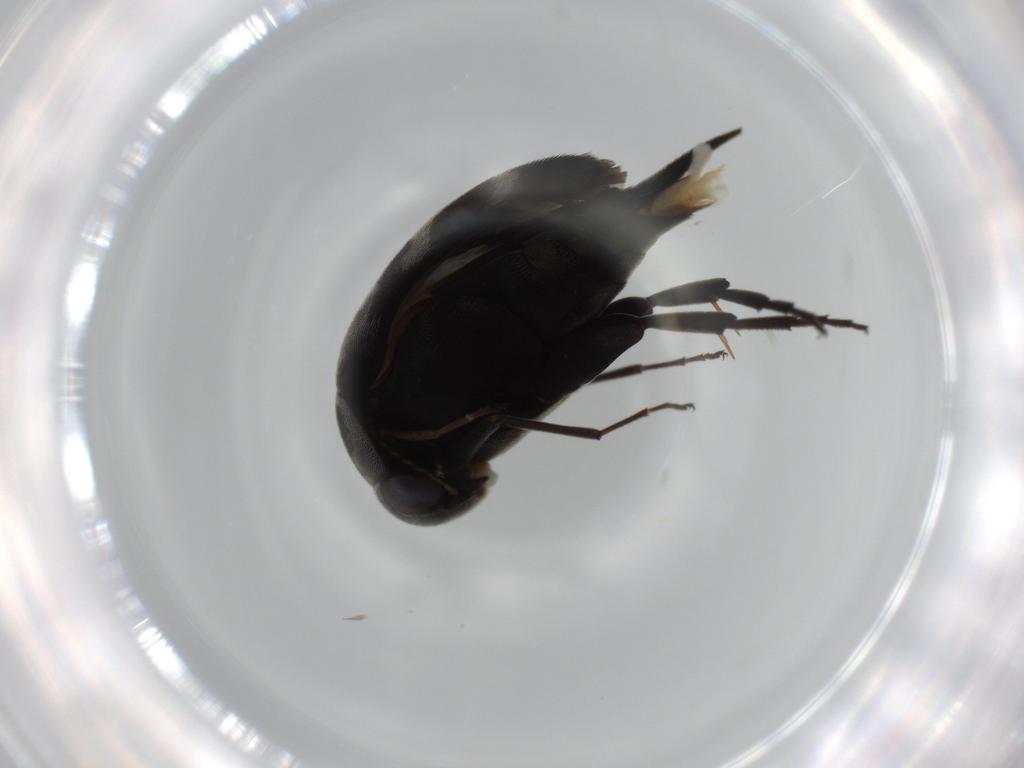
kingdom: Animalia
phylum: Arthropoda
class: Insecta
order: Coleoptera
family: Mordellidae
